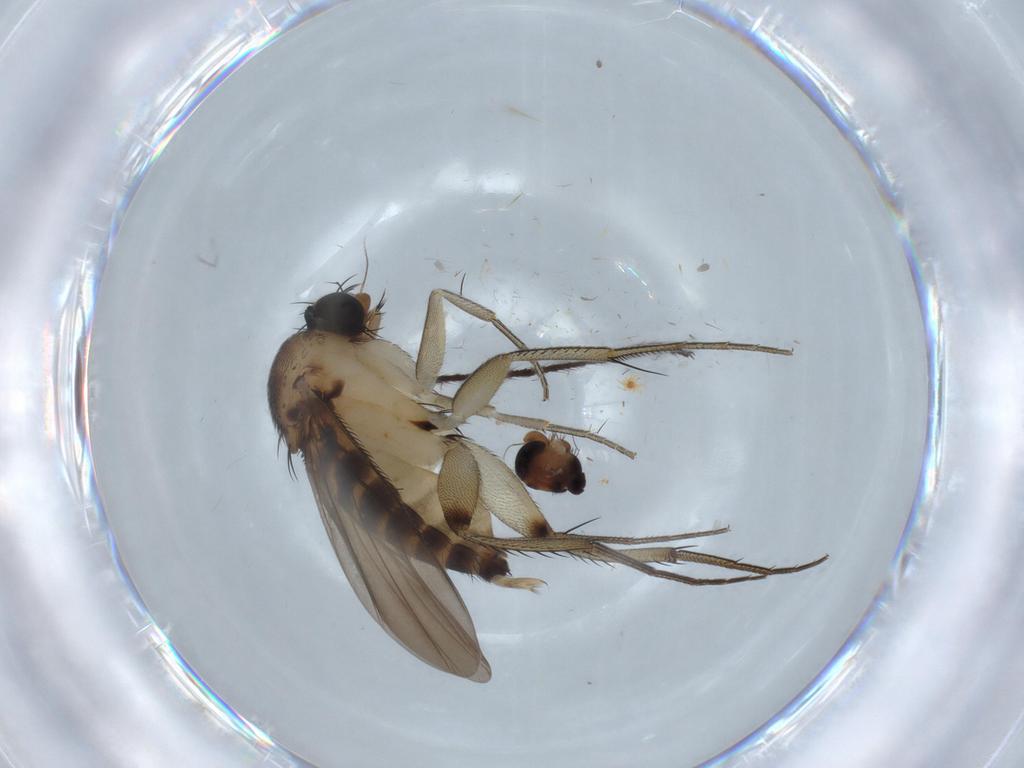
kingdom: Animalia
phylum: Arthropoda
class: Insecta
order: Diptera
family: Phoridae
